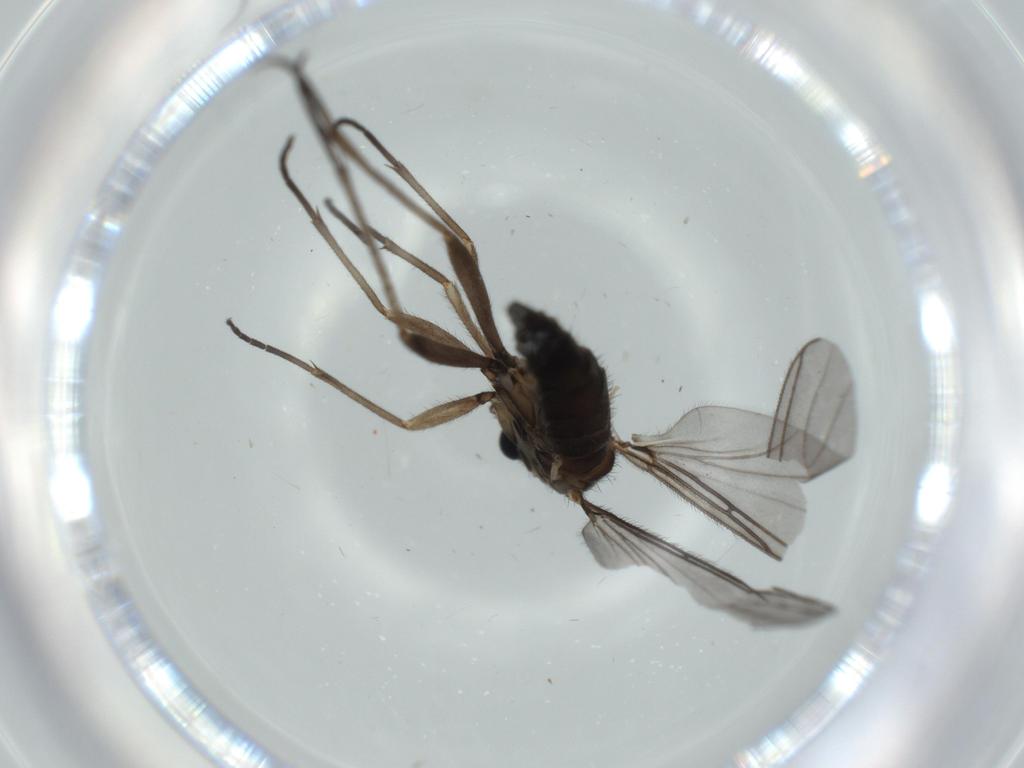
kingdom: Animalia
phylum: Arthropoda
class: Insecta
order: Diptera
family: Sciaridae
